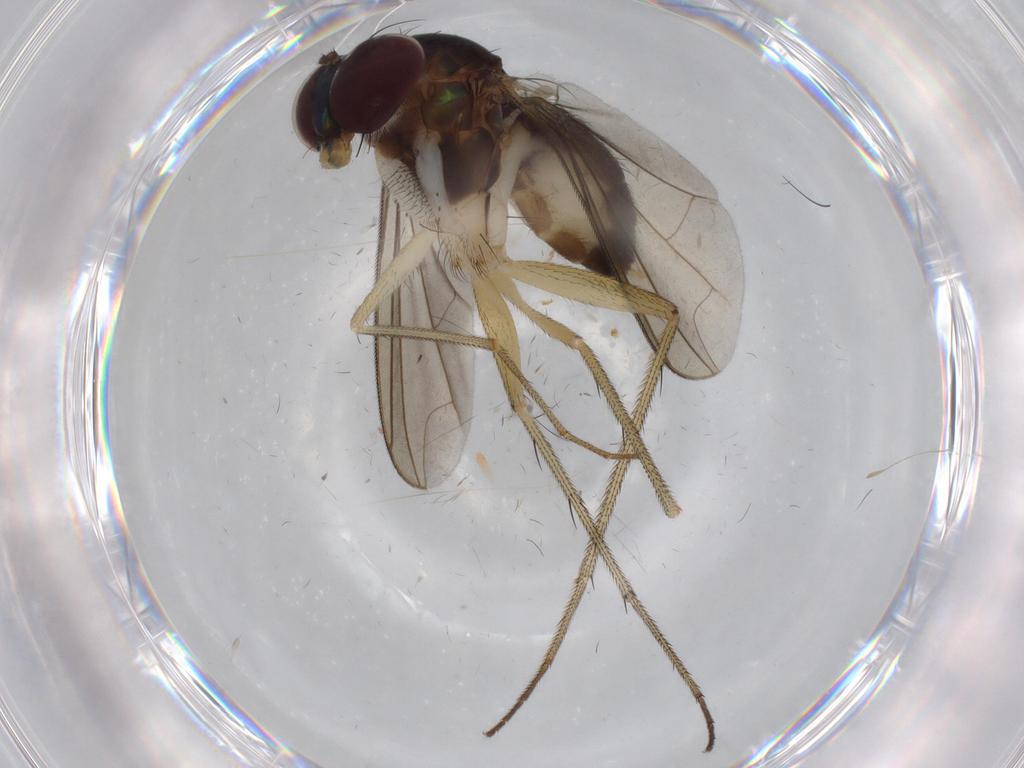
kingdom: Animalia
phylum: Arthropoda
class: Insecta
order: Diptera
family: Dolichopodidae
